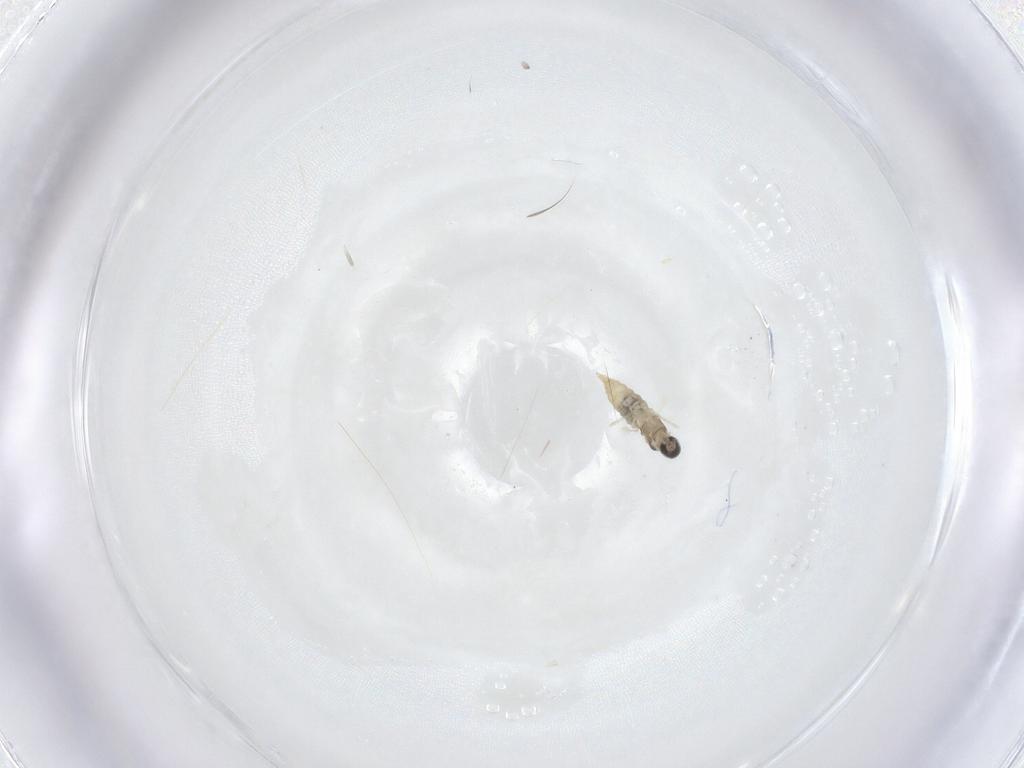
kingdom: Animalia
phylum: Arthropoda
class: Insecta
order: Diptera
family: Cecidomyiidae
